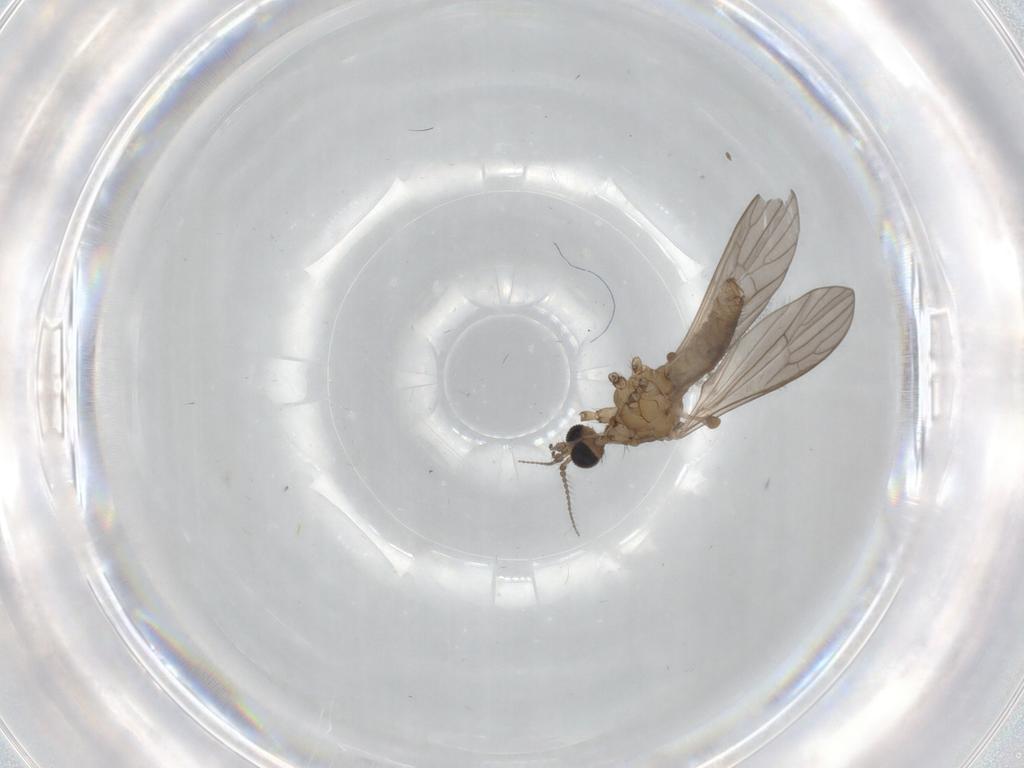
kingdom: Animalia
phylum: Arthropoda
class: Insecta
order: Diptera
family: Limoniidae
